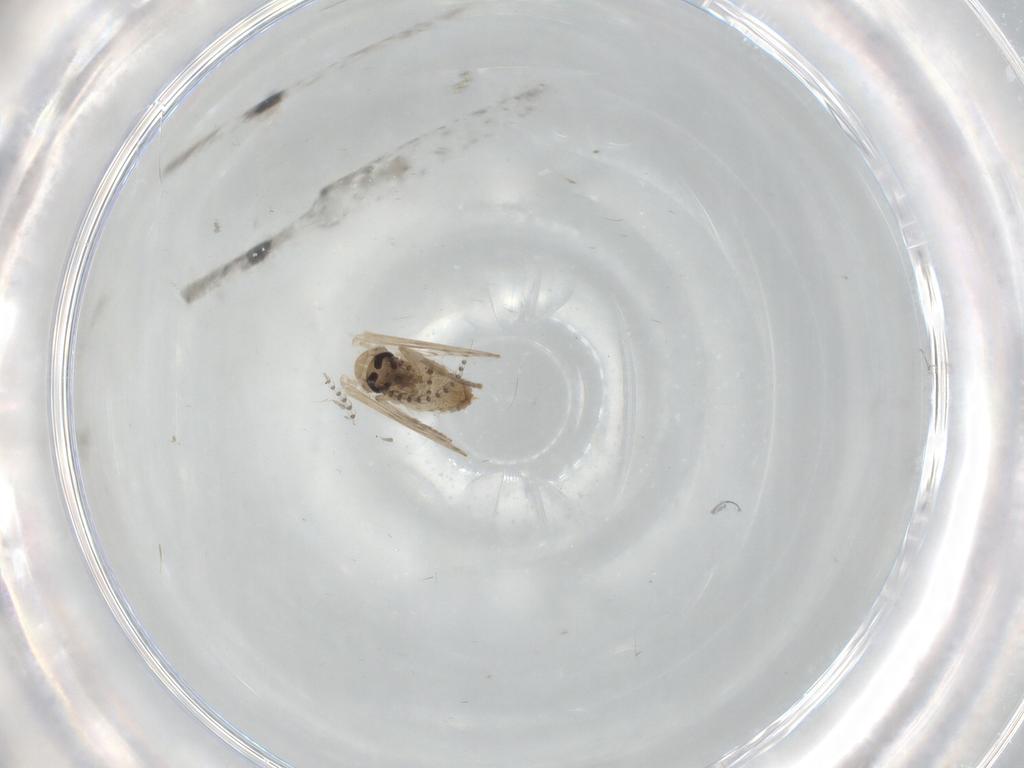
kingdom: Animalia
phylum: Arthropoda
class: Insecta
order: Diptera
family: Psychodidae
